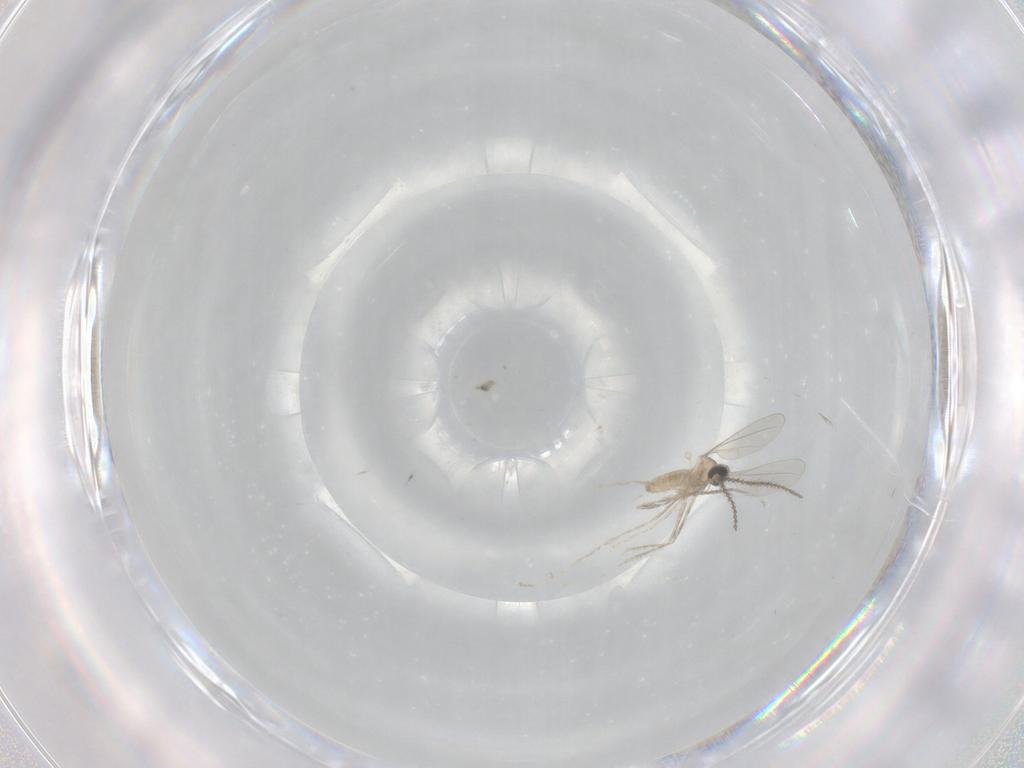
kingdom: Animalia
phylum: Arthropoda
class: Insecta
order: Diptera
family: Cecidomyiidae
